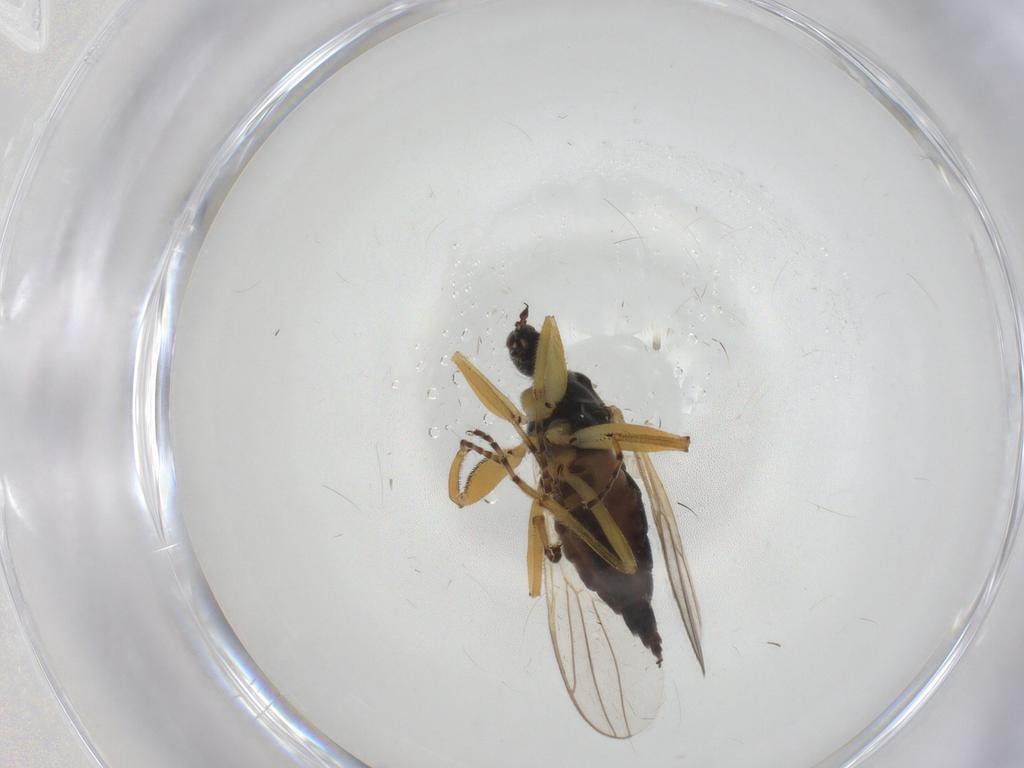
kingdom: Animalia
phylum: Arthropoda
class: Insecta
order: Diptera
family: Hybotidae
